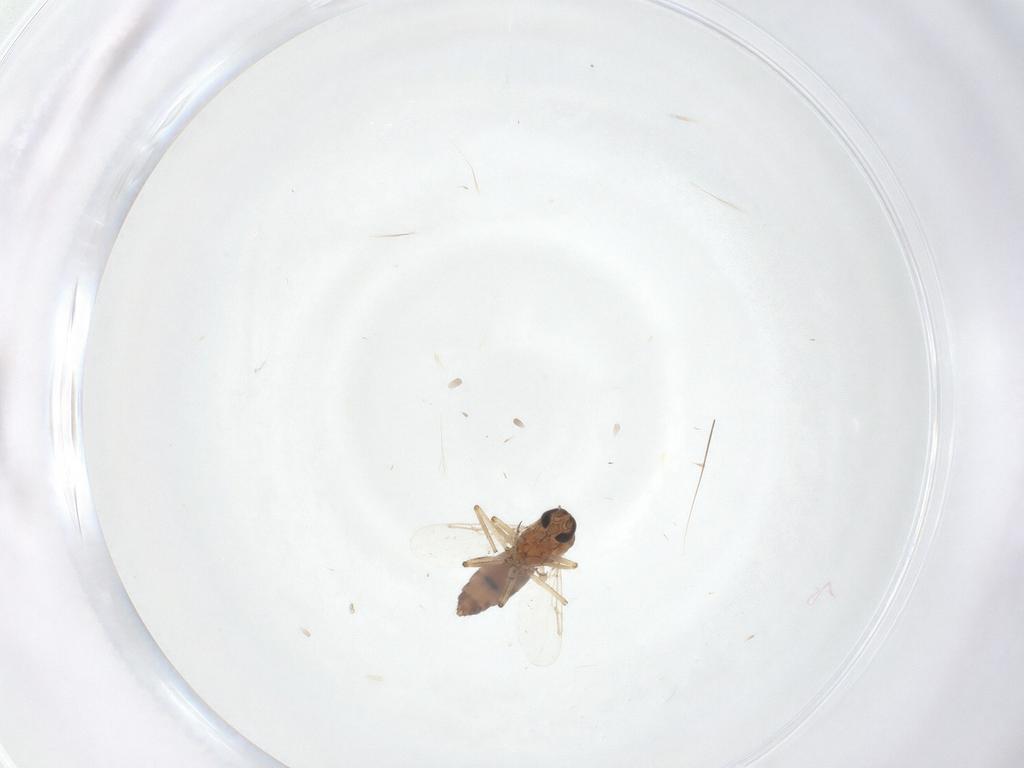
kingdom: Animalia
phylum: Arthropoda
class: Insecta
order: Diptera
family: Ceratopogonidae
